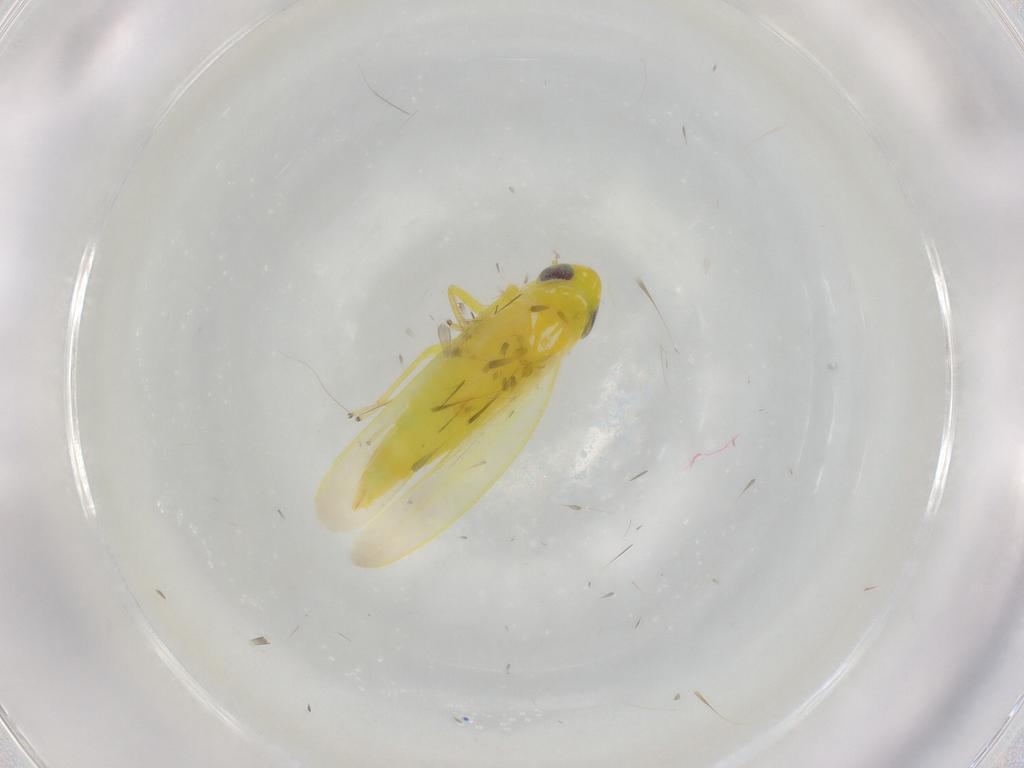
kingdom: Animalia
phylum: Arthropoda
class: Insecta
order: Hemiptera
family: Cicadellidae
